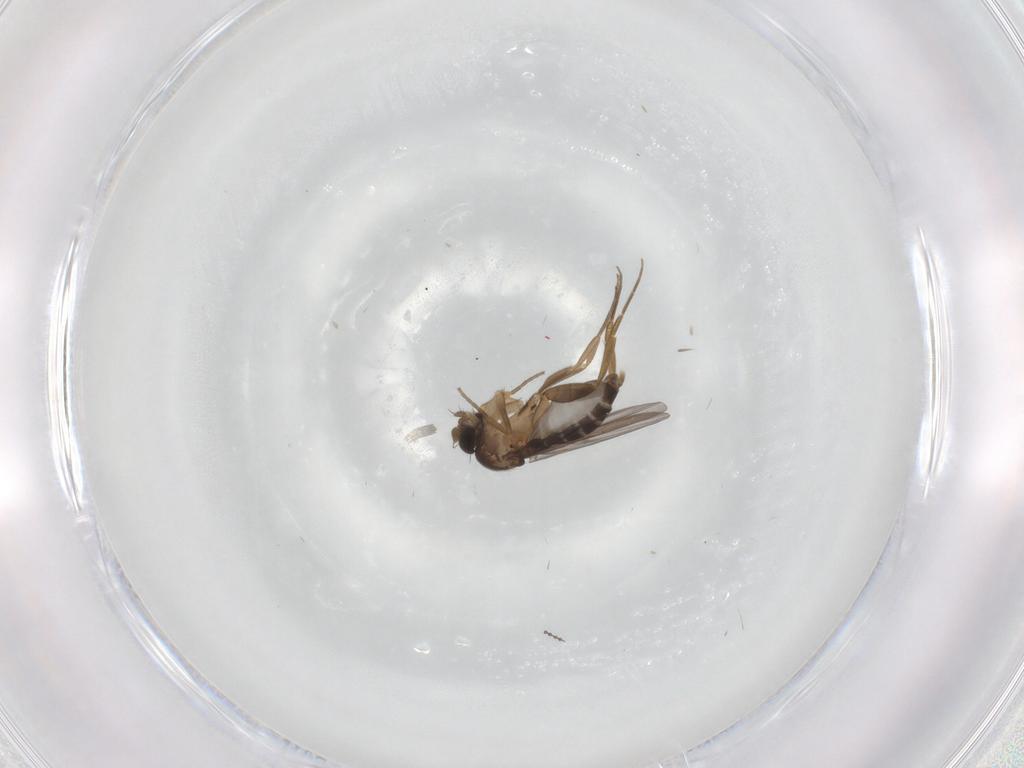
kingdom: Animalia
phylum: Arthropoda
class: Insecta
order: Diptera
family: Phoridae
